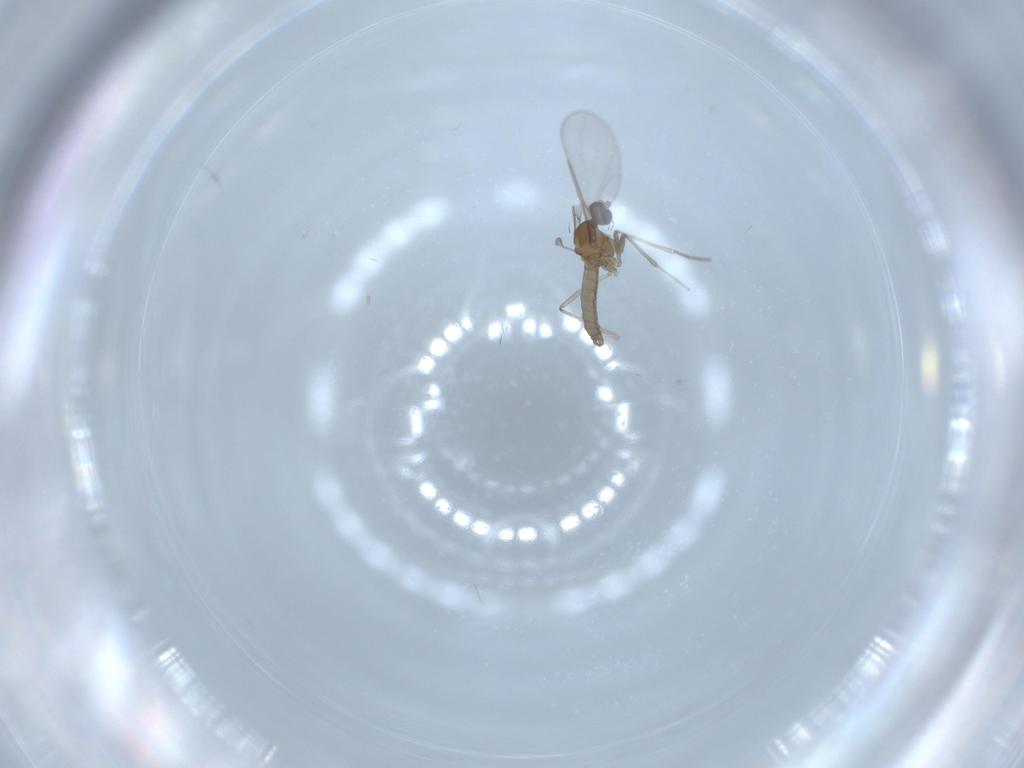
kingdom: Animalia
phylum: Arthropoda
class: Insecta
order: Diptera
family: Cecidomyiidae
